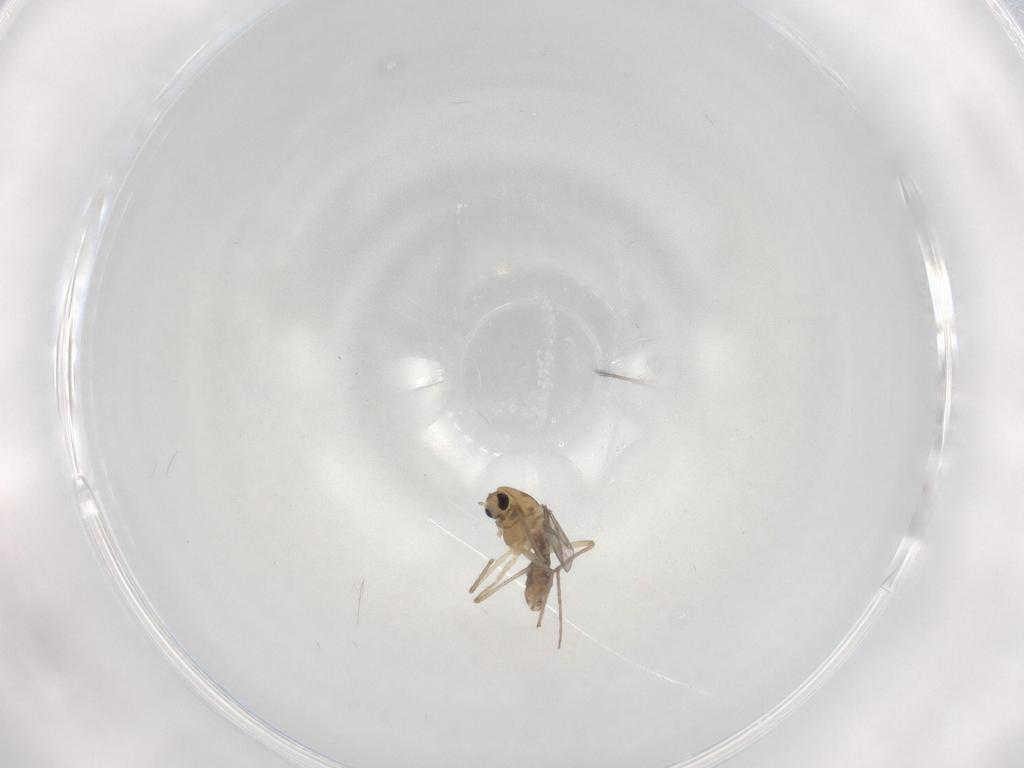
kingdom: Animalia
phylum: Arthropoda
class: Insecta
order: Diptera
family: Chironomidae
